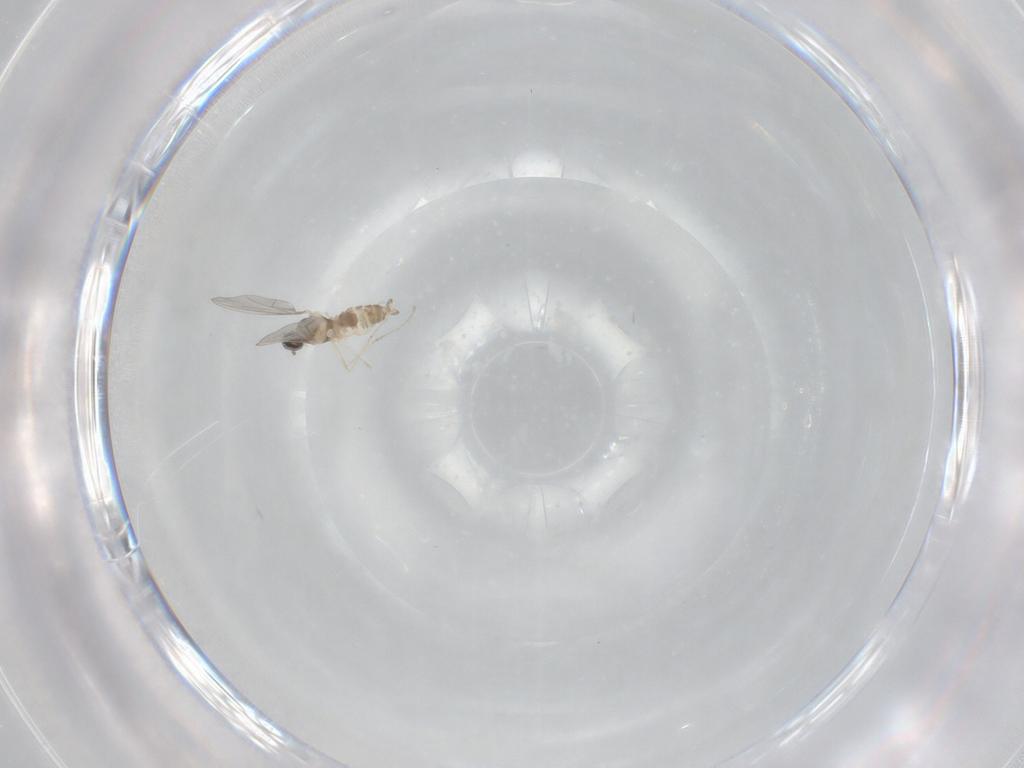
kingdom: Animalia
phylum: Arthropoda
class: Insecta
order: Diptera
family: Cecidomyiidae
